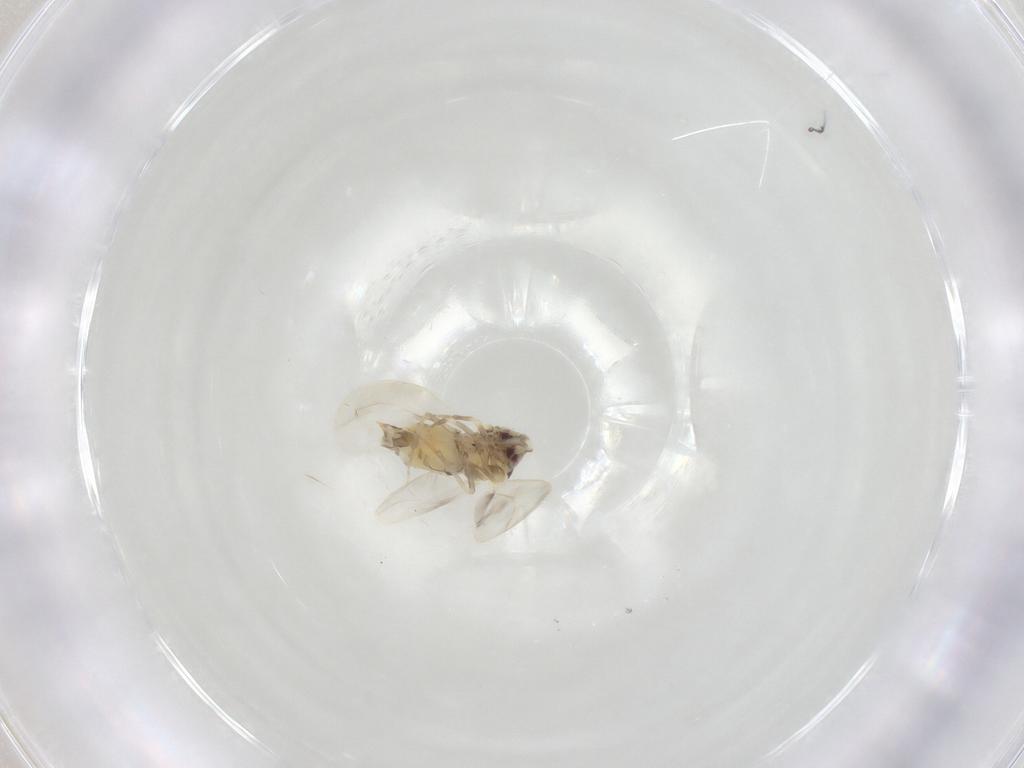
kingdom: Animalia
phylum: Arthropoda
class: Insecta
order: Hemiptera
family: Aleyrodidae
